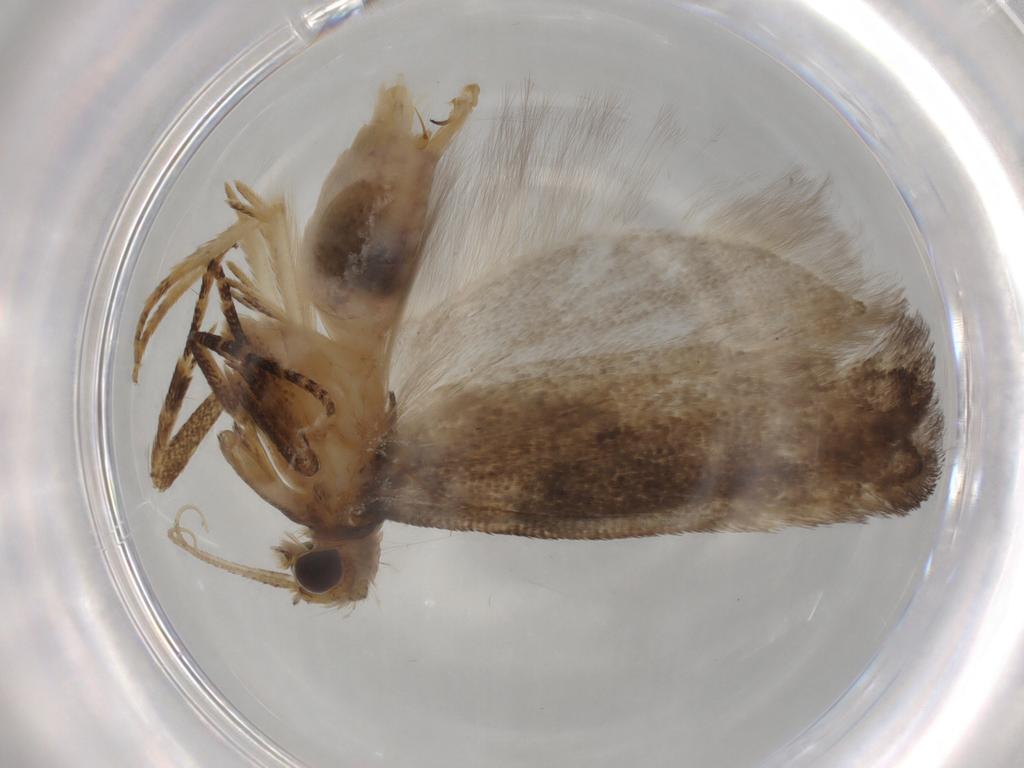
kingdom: Animalia
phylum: Arthropoda
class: Insecta
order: Lepidoptera
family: Gelechiidae
